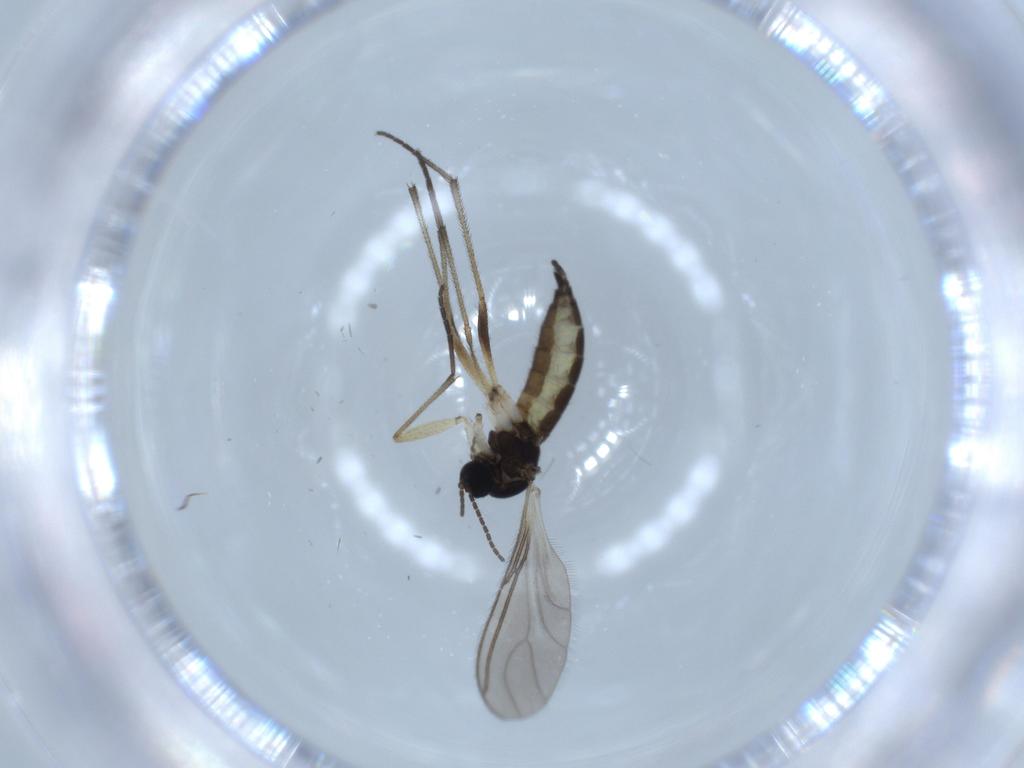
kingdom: Animalia
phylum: Arthropoda
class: Insecta
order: Diptera
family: Sciaridae
